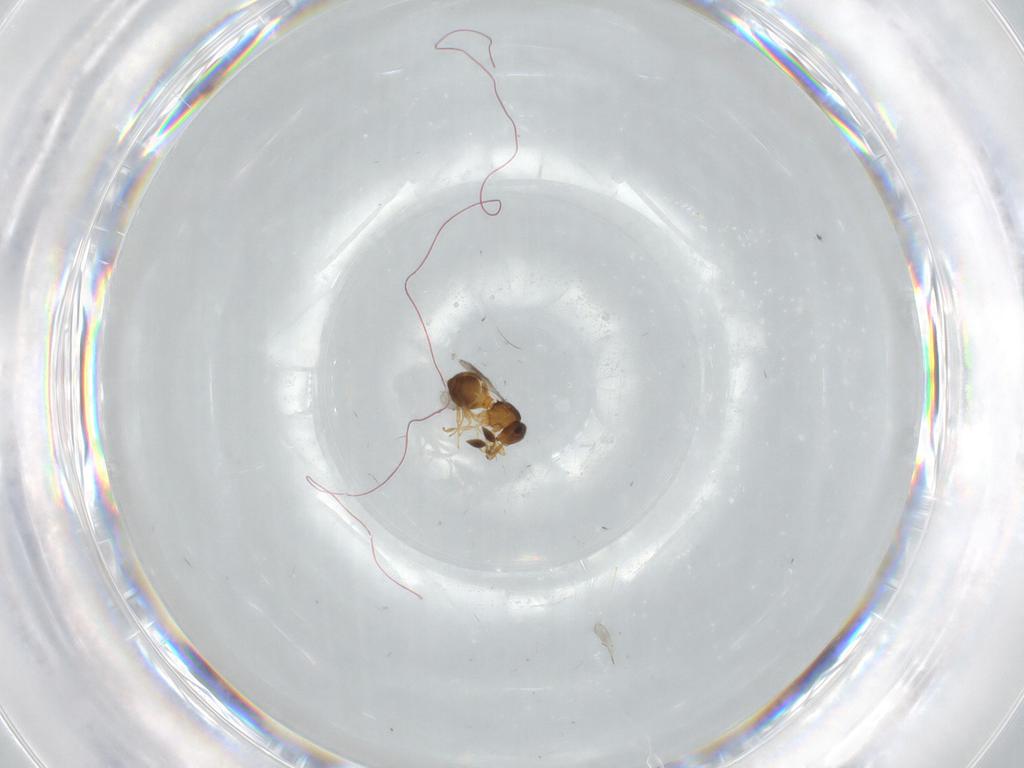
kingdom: Animalia
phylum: Arthropoda
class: Insecta
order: Hymenoptera
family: Scelionidae
